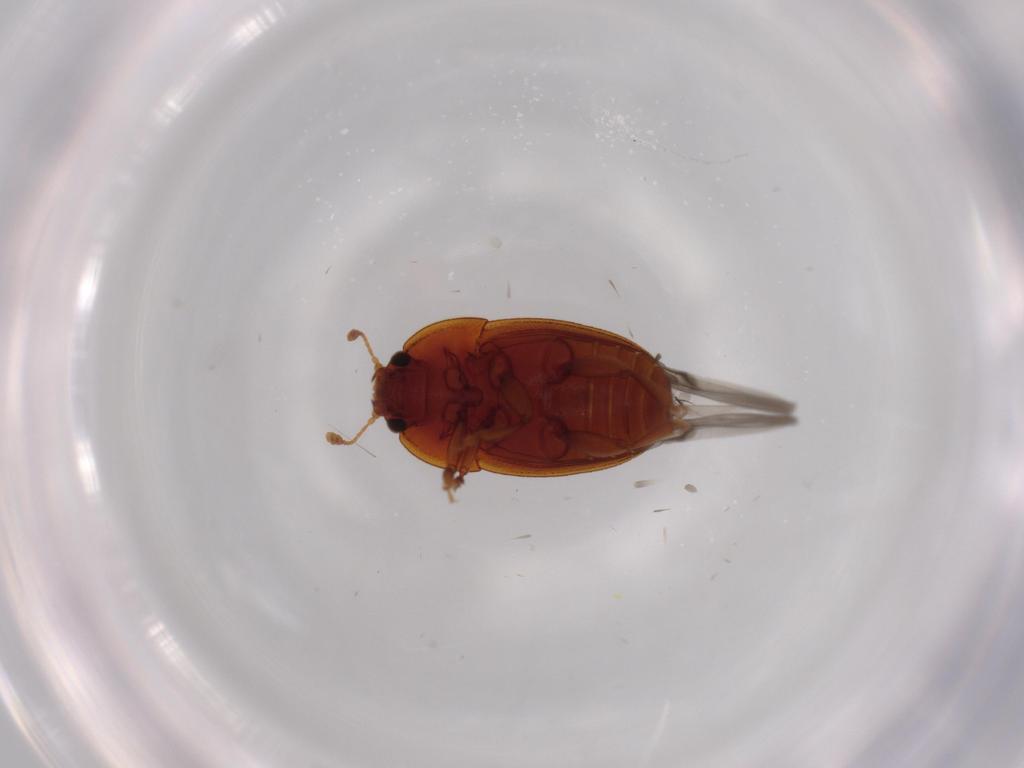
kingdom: Animalia
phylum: Arthropoda
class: Insecta
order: Coleoptera
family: Nitidulidae
